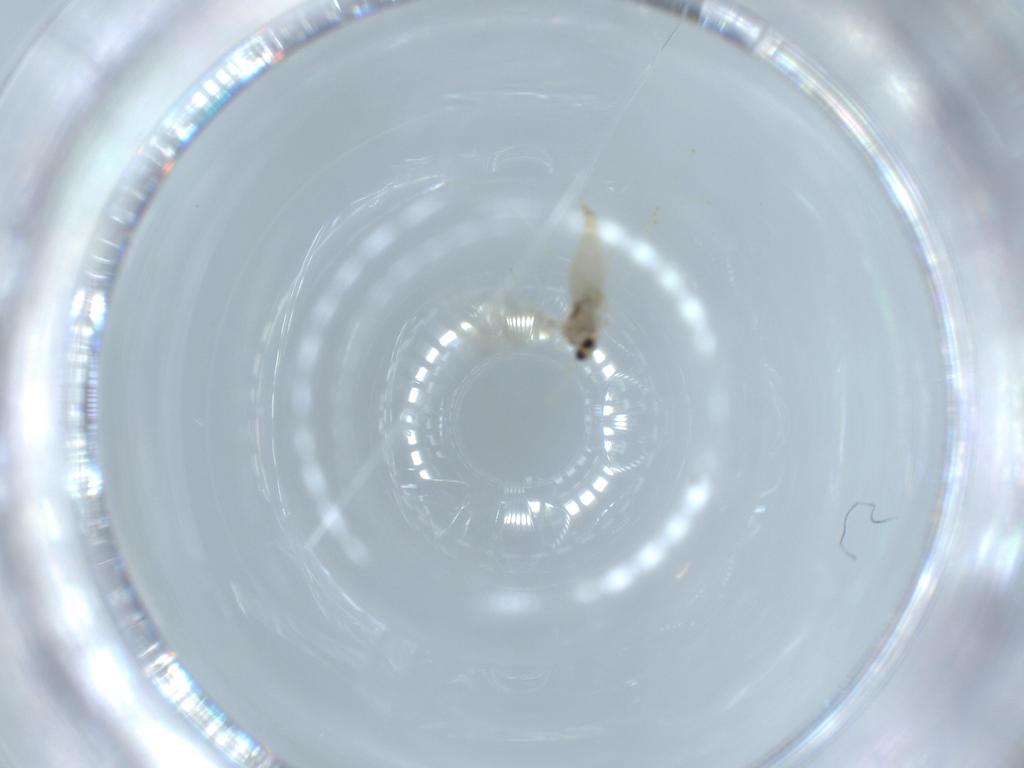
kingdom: Animalia
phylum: Arthropoda
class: Insecta
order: Diptera
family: Cecidomyiidae
